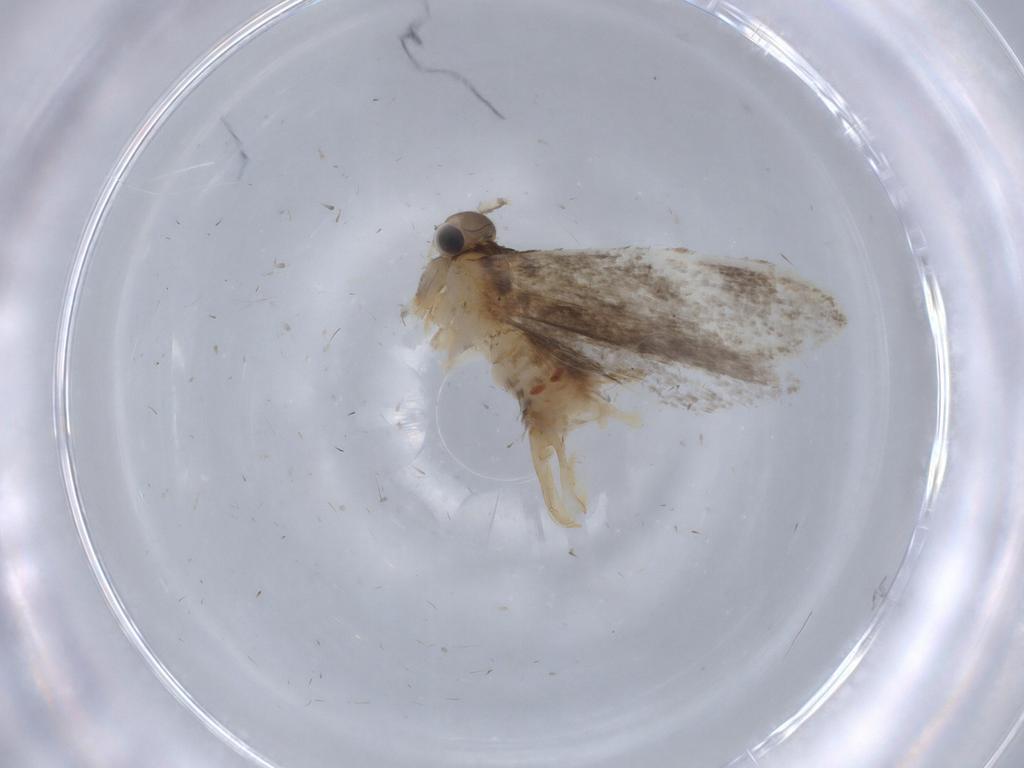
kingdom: Animalia
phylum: Arthropoda
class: Insecta
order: Lepidoptera
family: Tineidae
